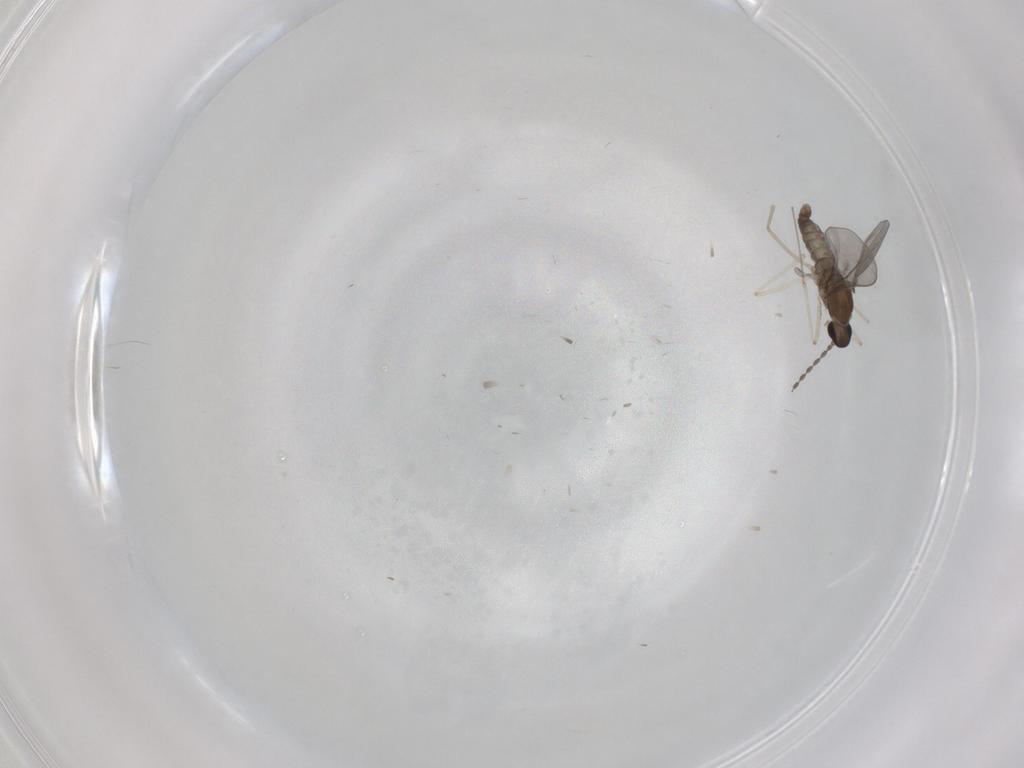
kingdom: Animalia
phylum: Arthropoda
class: Insecta
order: Diptera
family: Cecidomyiidae
